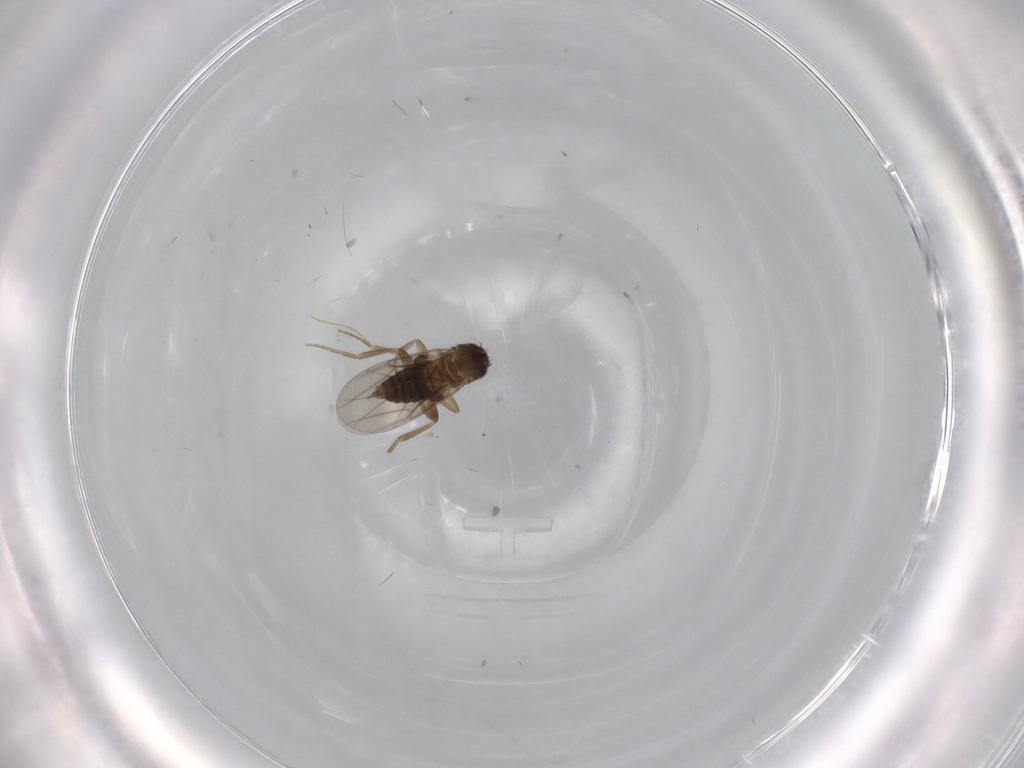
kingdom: Animalia
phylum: Arthropoda
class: Insecta
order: Diptera
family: Phoridae
